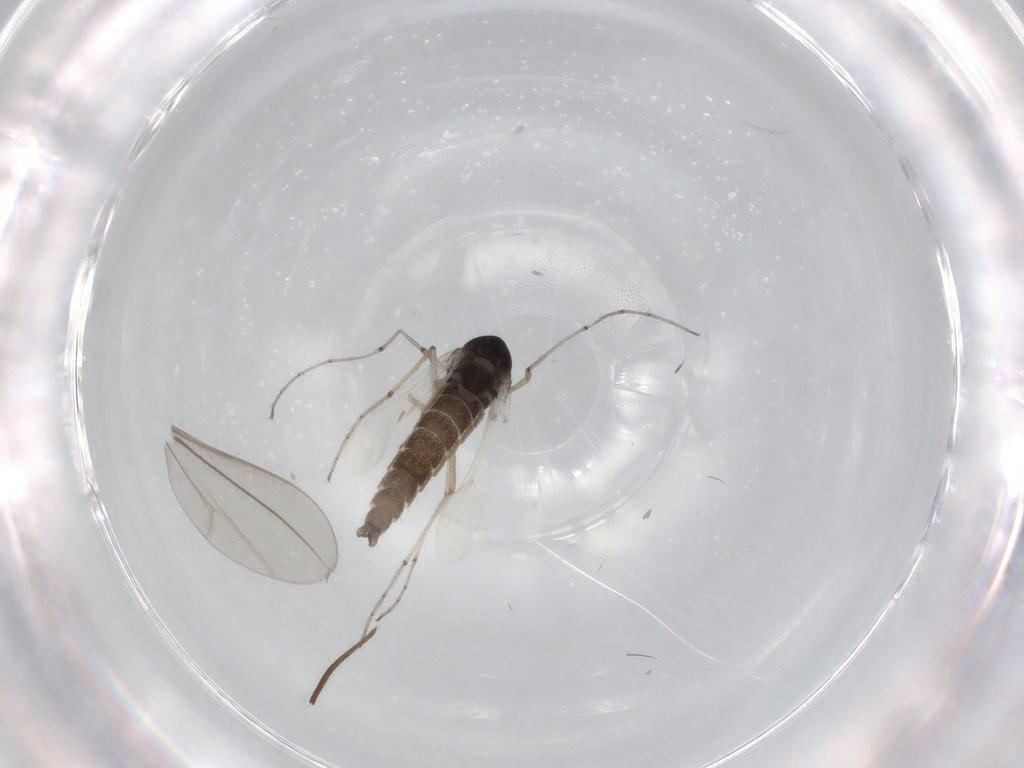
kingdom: Animalia
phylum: Arthropoda
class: Insecta
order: Diptera
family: Chironomidae
